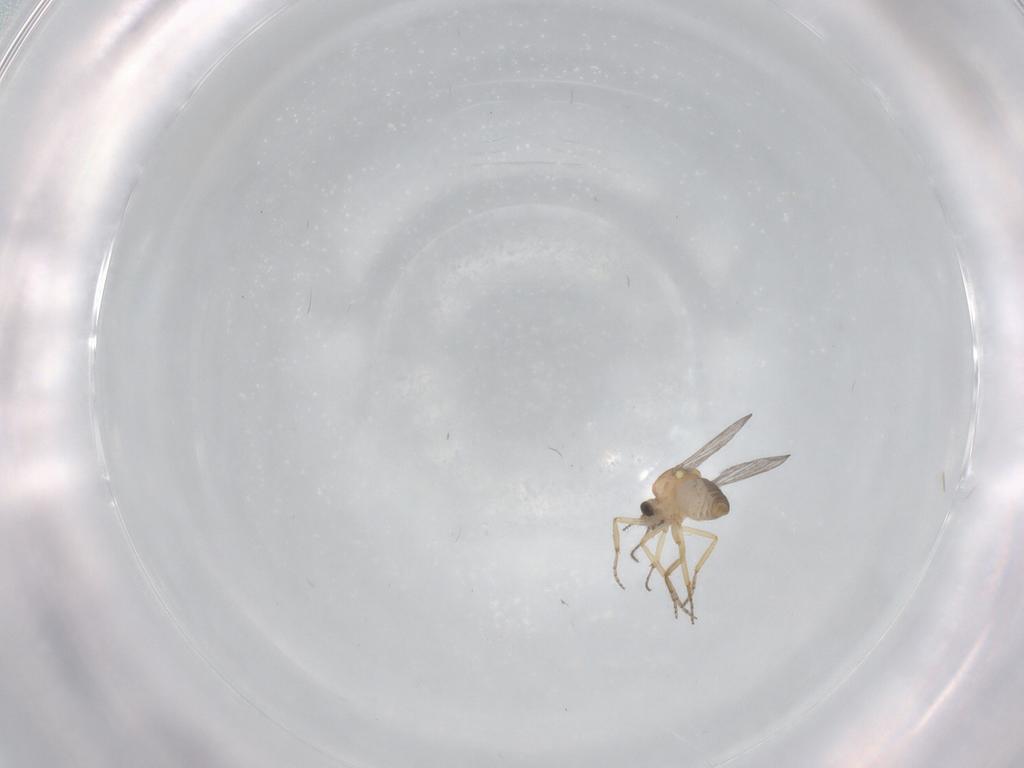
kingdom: Animalia
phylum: Arthropoda
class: Insecta
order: Diptera
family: Ceratopogonidae
